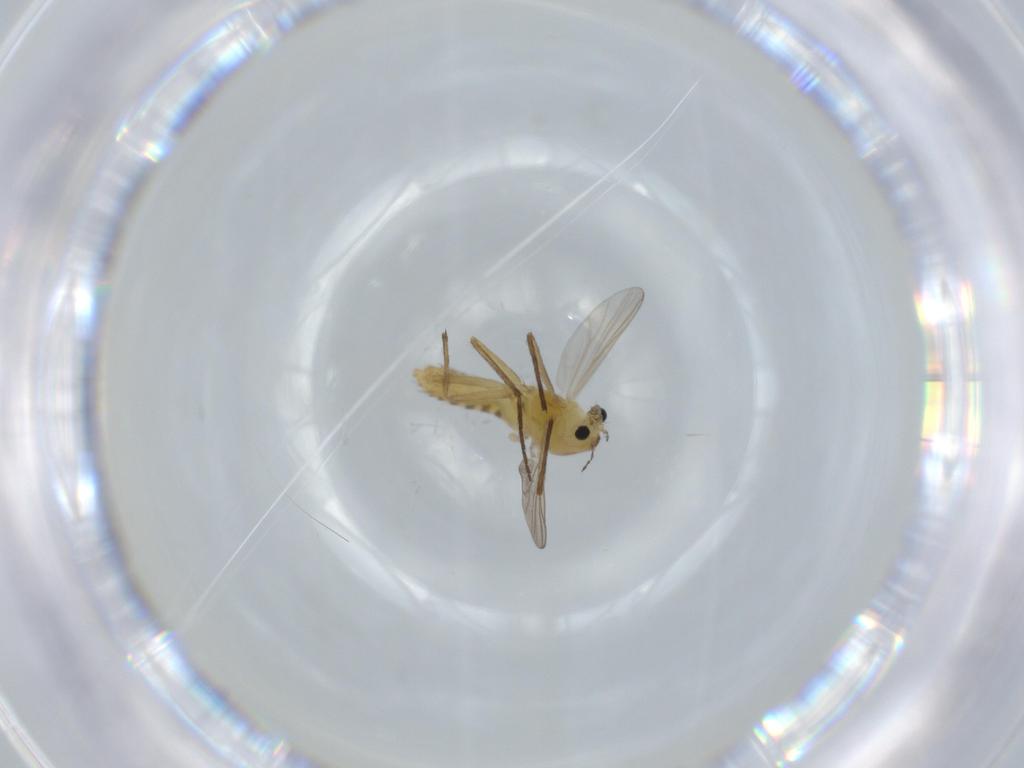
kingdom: Animalia
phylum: Arthropoda
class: Insecta
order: Diptera
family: Chironomidae
